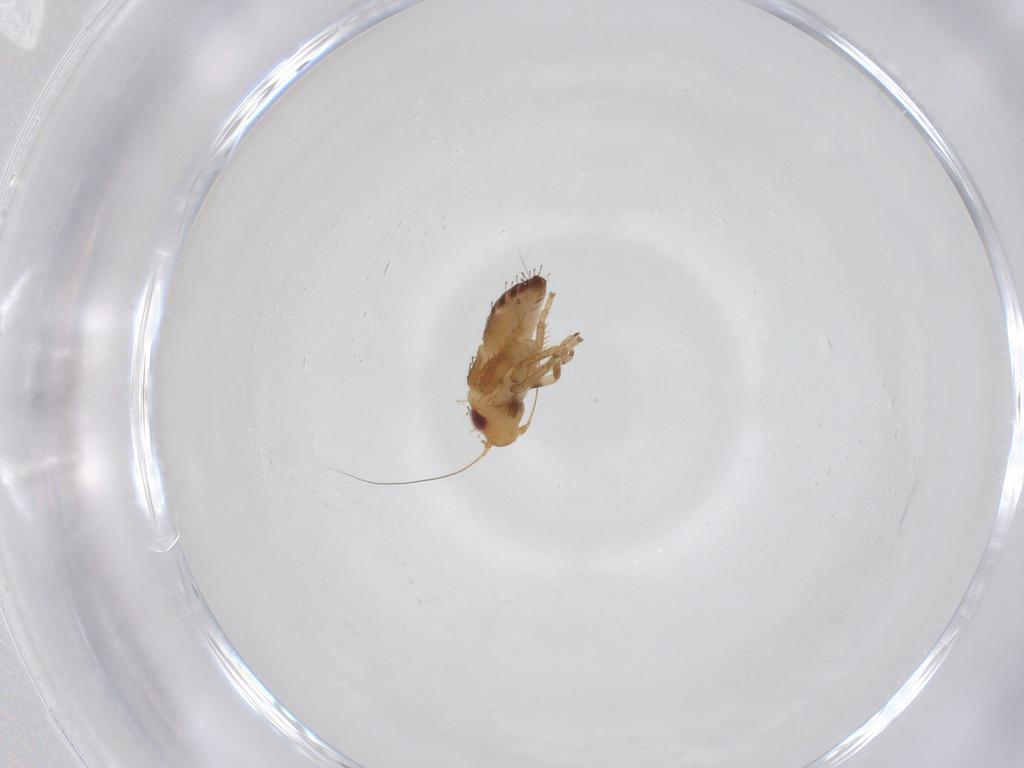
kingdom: Animalia
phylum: Arthropoda
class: Insecta
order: Hemiptera
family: Cicadellidae
